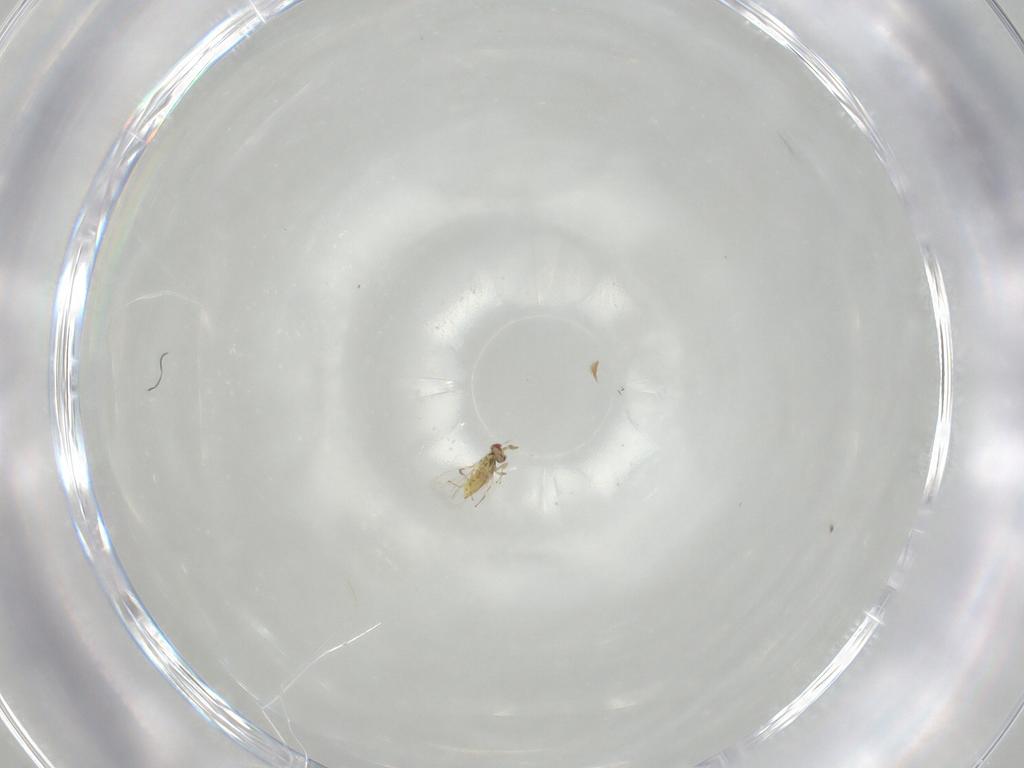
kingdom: Animalia
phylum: Arthropoda
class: Insecta
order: Hymenoptera
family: Trichogrammatidae
